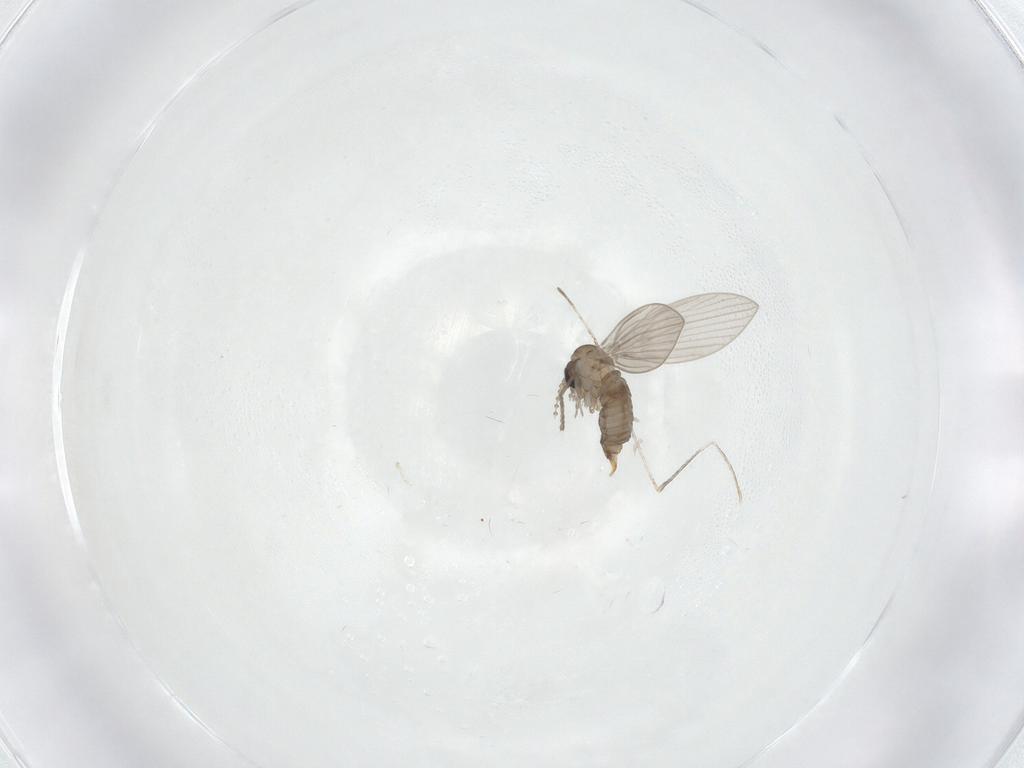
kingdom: Animalia
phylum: Arthropoda
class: Insecta
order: Diptera
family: Psychodidae
